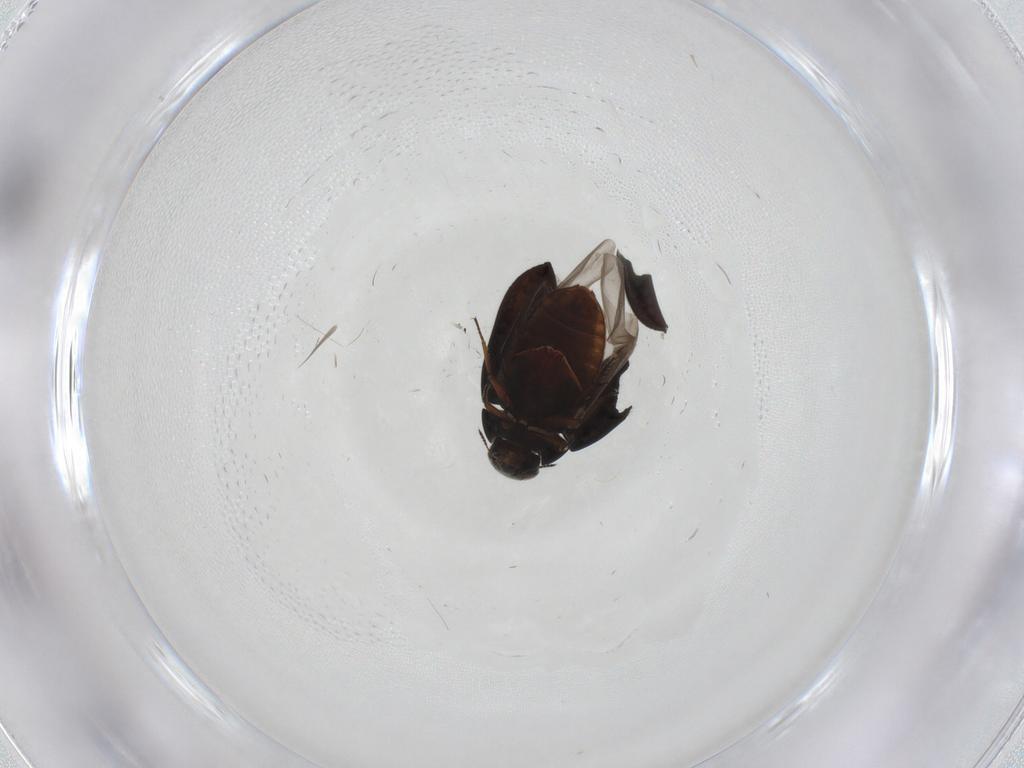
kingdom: Animalia
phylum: Arthropoda
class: Insecta
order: Coleoptera
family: Limnichidae
